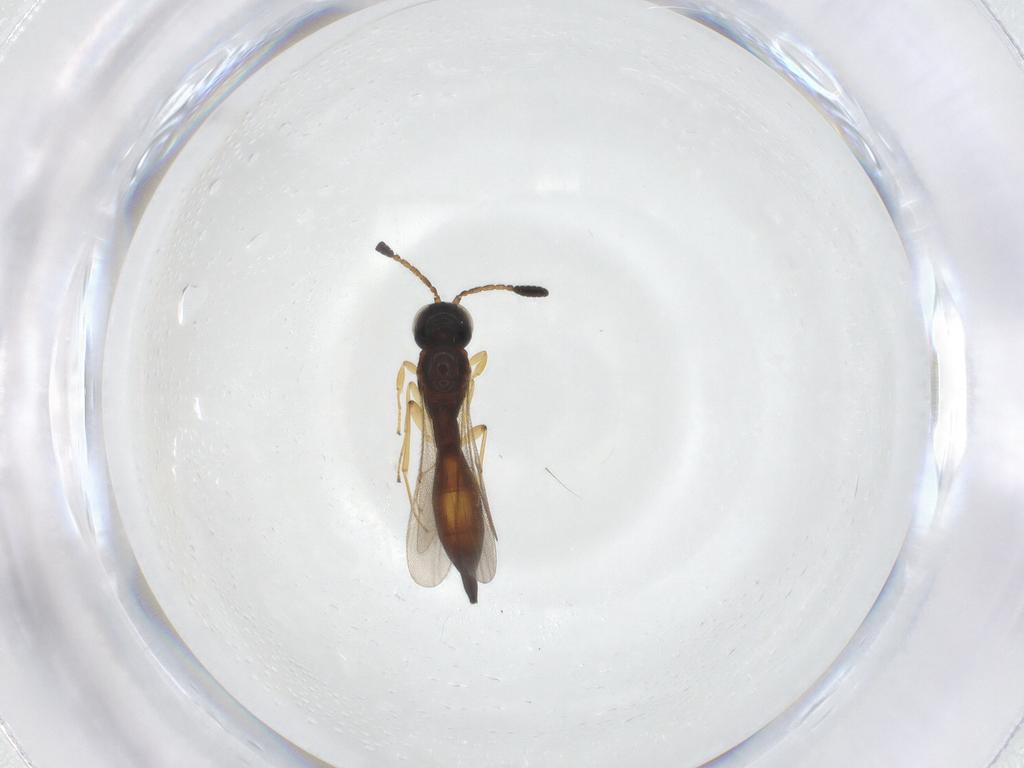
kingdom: Animalia
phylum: Arthropoda
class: Insecta
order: Hymenoptera
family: Scelionidae
